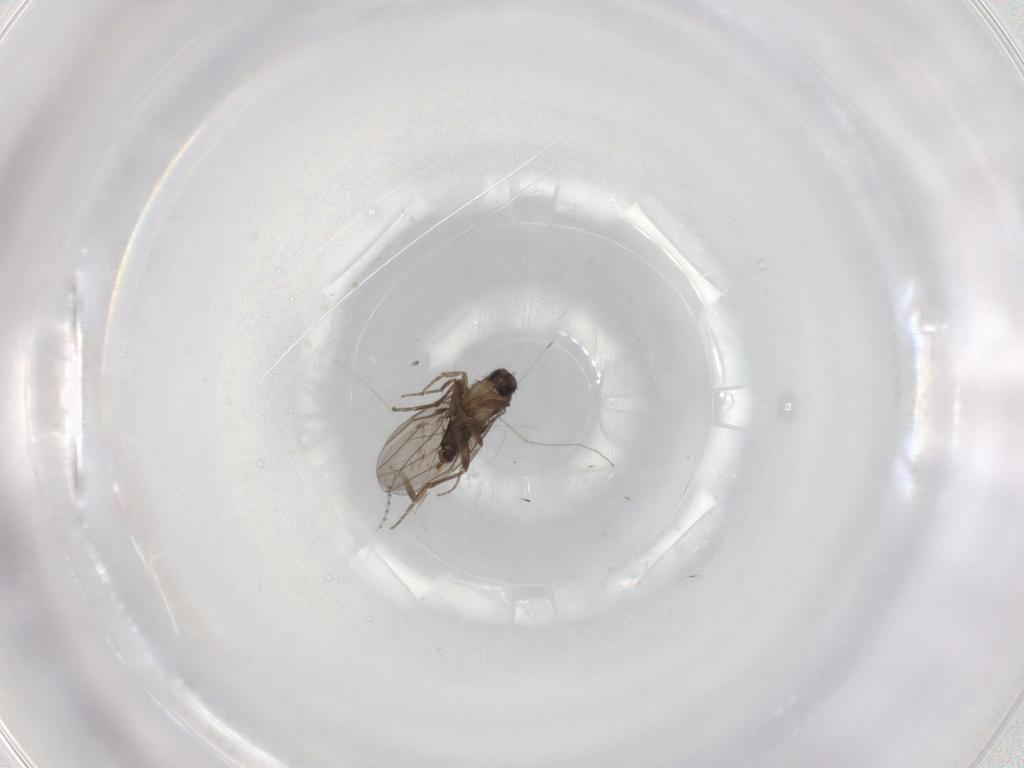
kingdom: Animalia
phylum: Arthropoda
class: Insecta
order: Diptera
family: Phoridae
